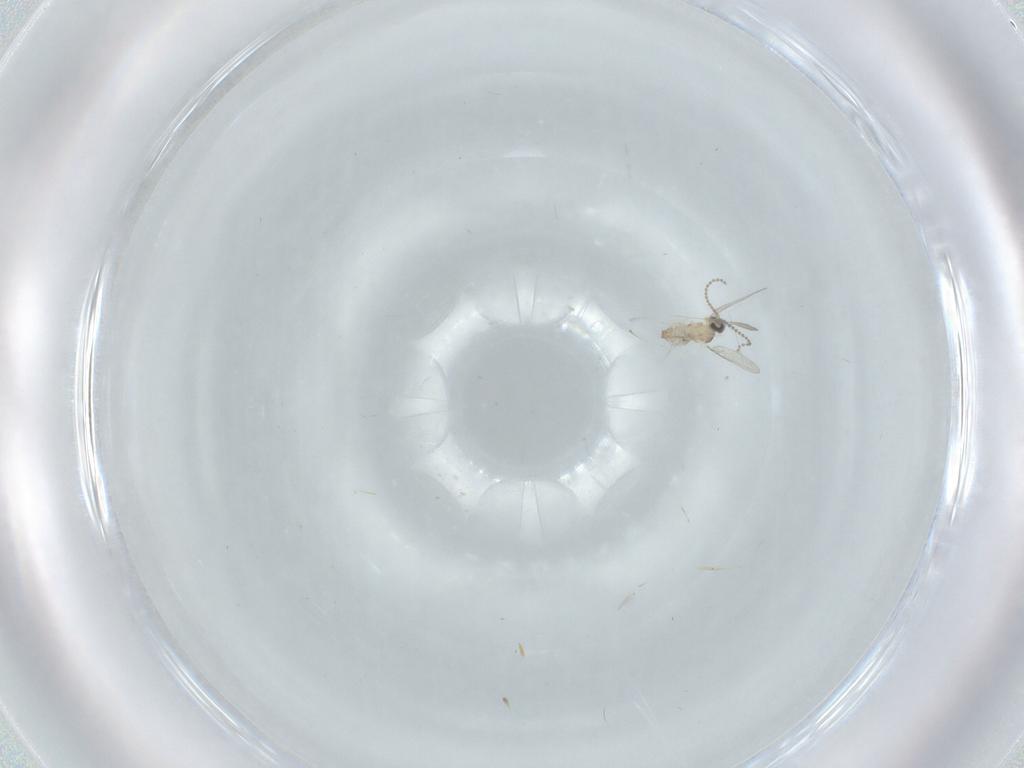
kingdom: Animalia
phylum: Arthropoda
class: Insecta
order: Diptera
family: Cecidomyiidae
